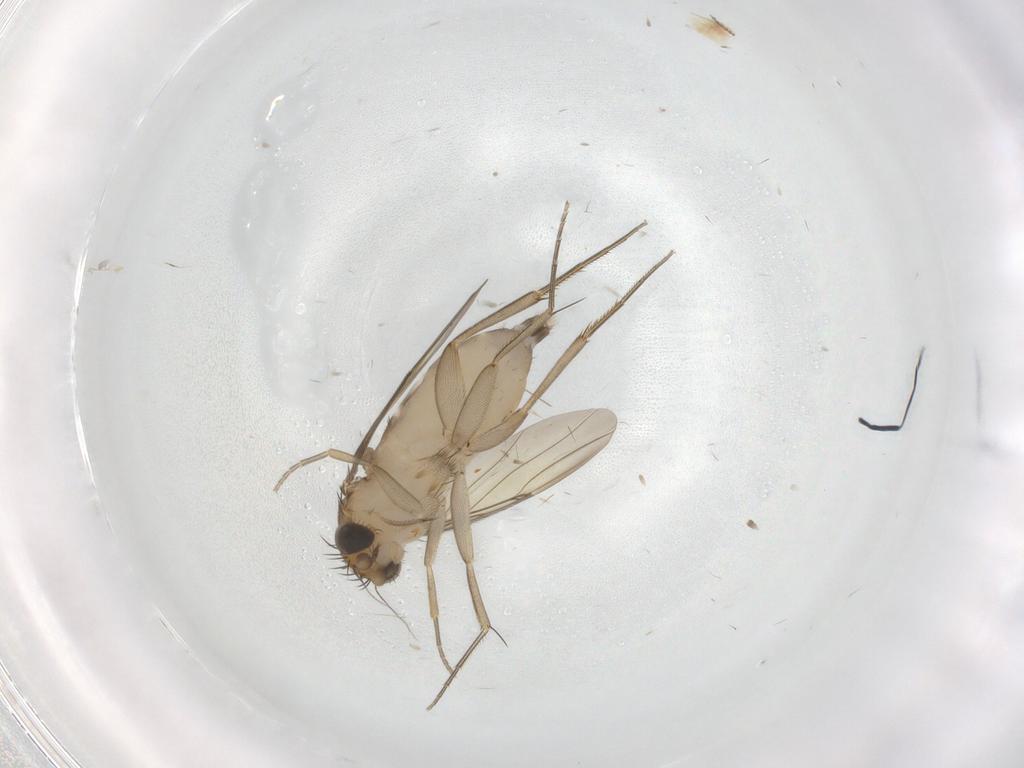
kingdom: Animalia
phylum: Arthropoda
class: Insecta
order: Diptera
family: Phoridae
